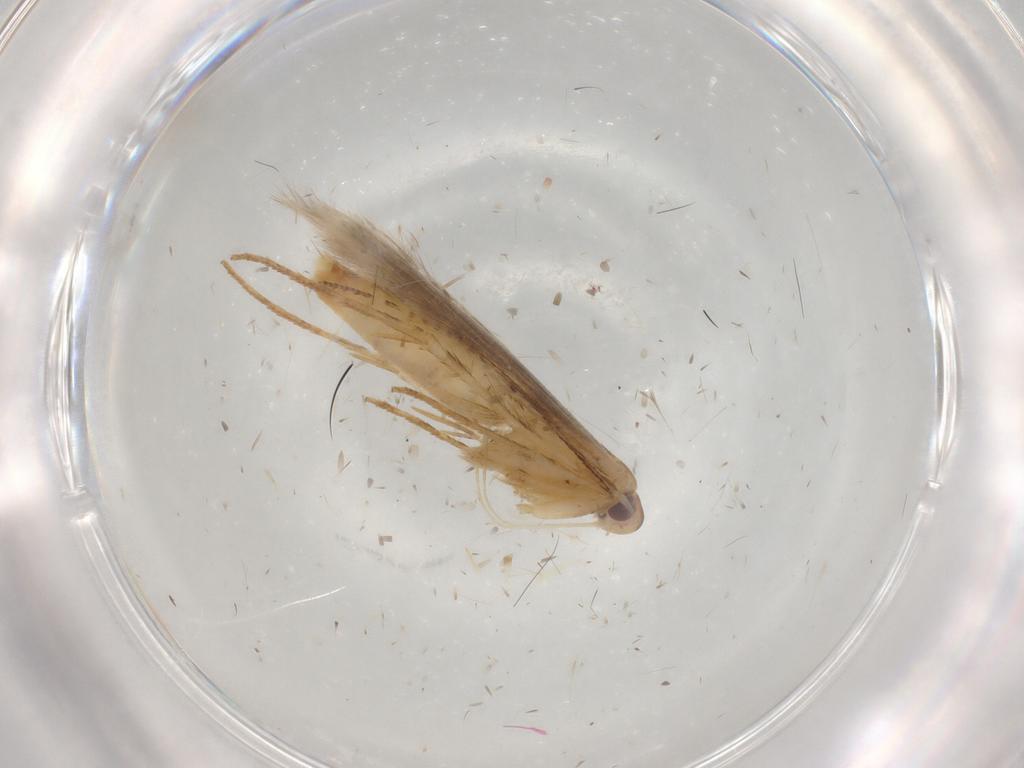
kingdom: Animalia
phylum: Arthropoda
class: Insecta
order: Lepidoptera
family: Cosmopterigidae
